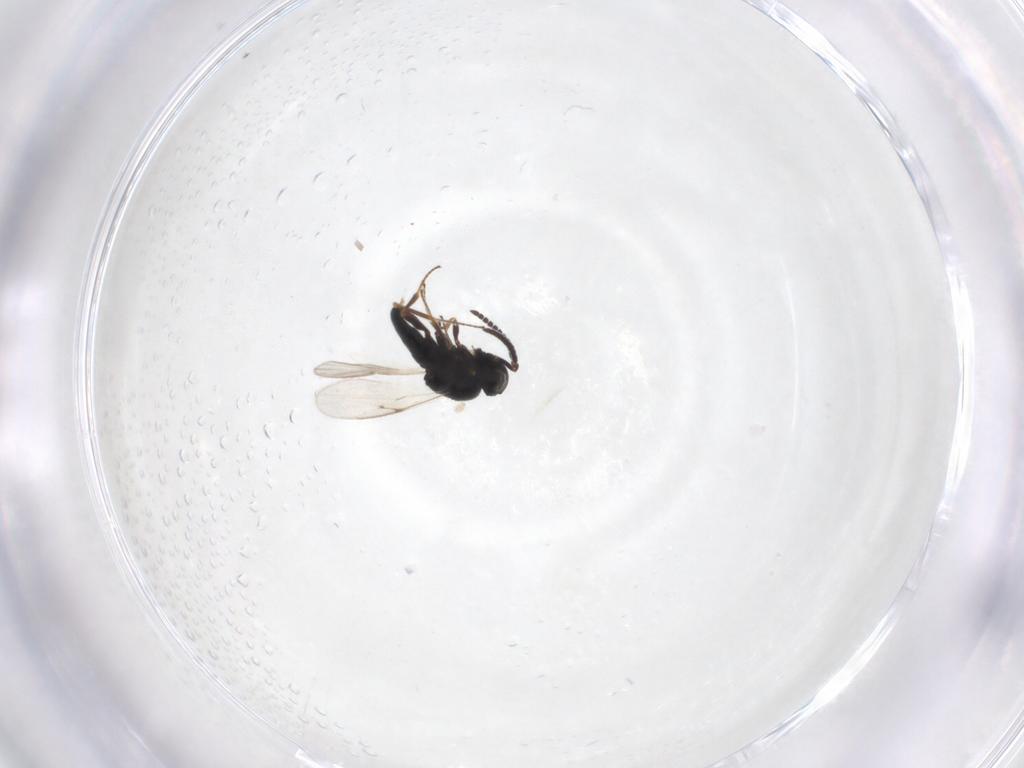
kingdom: Animalia
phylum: Arthropoda
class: Insecta
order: Hymenoptera
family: Scelionidae
